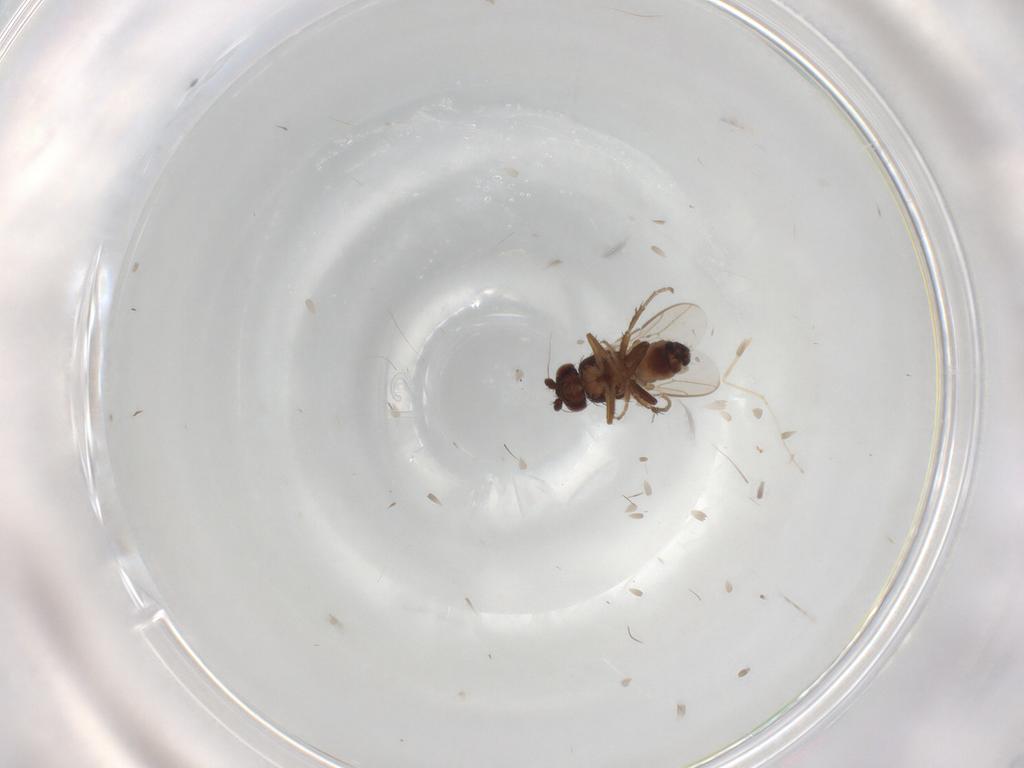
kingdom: Animalia
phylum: Arthropoda
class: Insecta
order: Diptera
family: Sphaeroceridae
